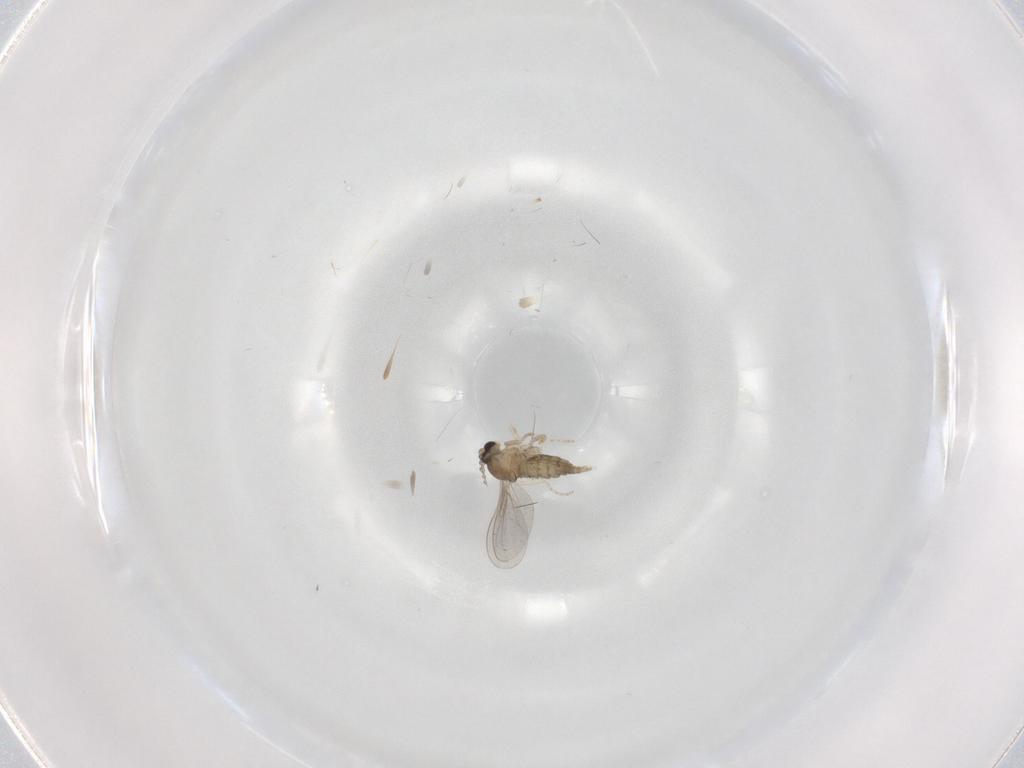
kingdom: Animalia
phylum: Arthropoda
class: Insecta
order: Diptera
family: Cecidomyiidae
